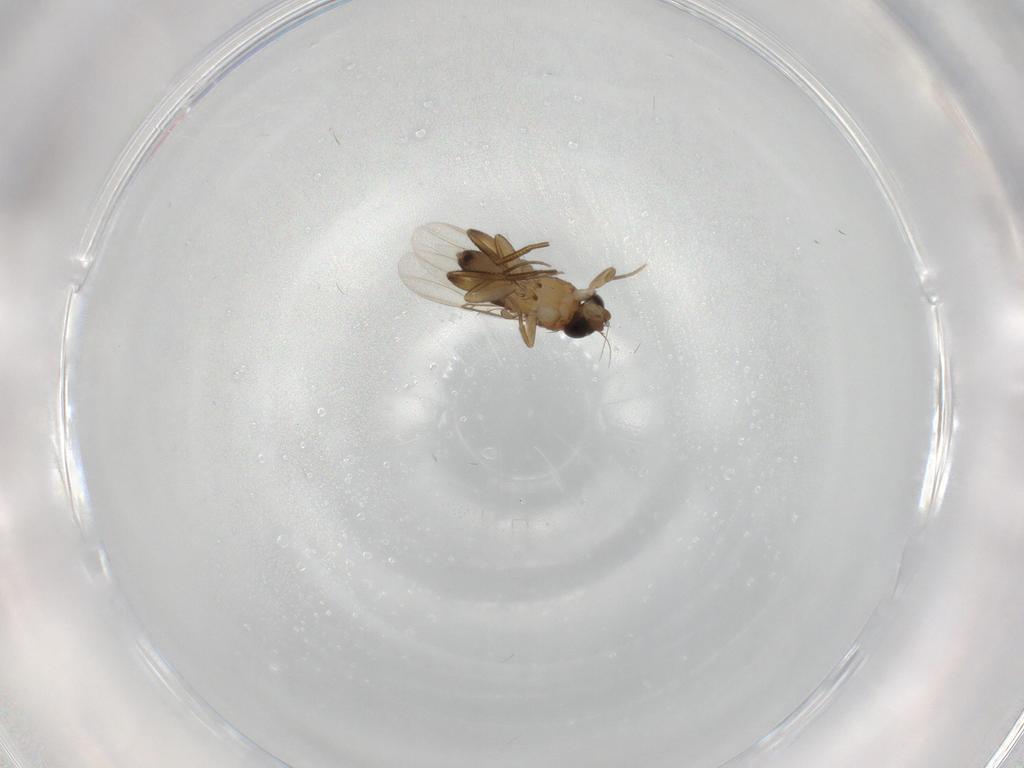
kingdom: Animalia
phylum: Arthropoda
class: Insecta
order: Diptera
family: Phoridae
